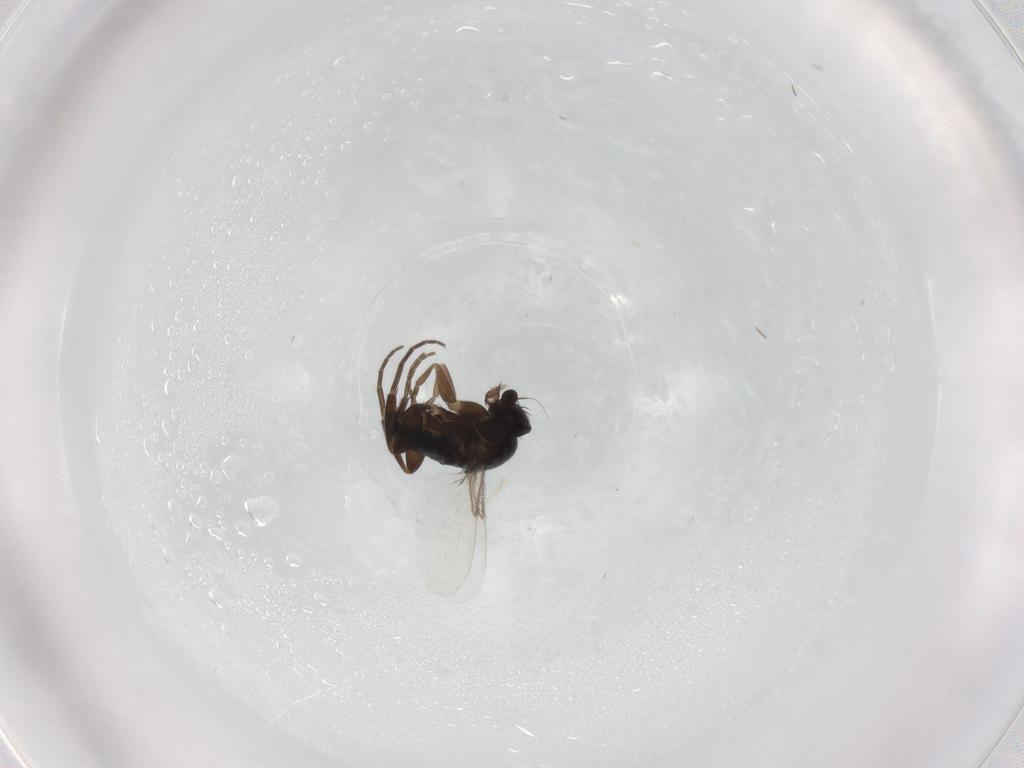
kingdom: Animalia
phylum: Arthropoda
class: Insecta
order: Diptera
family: Phoridae
